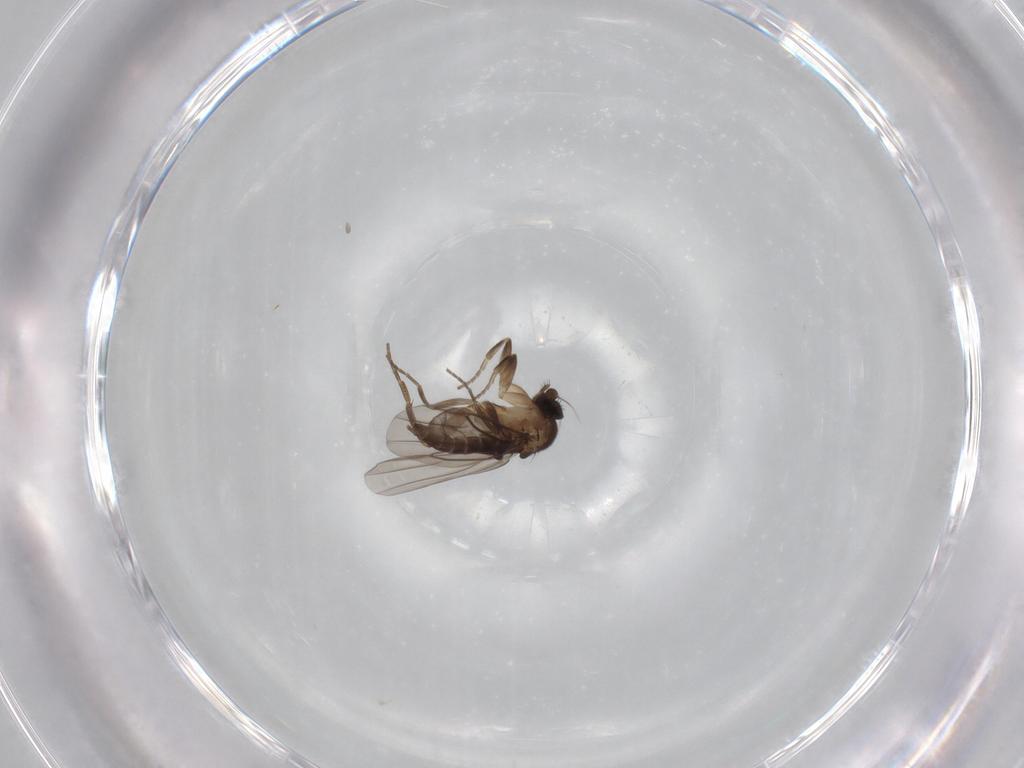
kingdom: Animalia
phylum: Arthropoda
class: Insecta
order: Diptera
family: Phoridae
